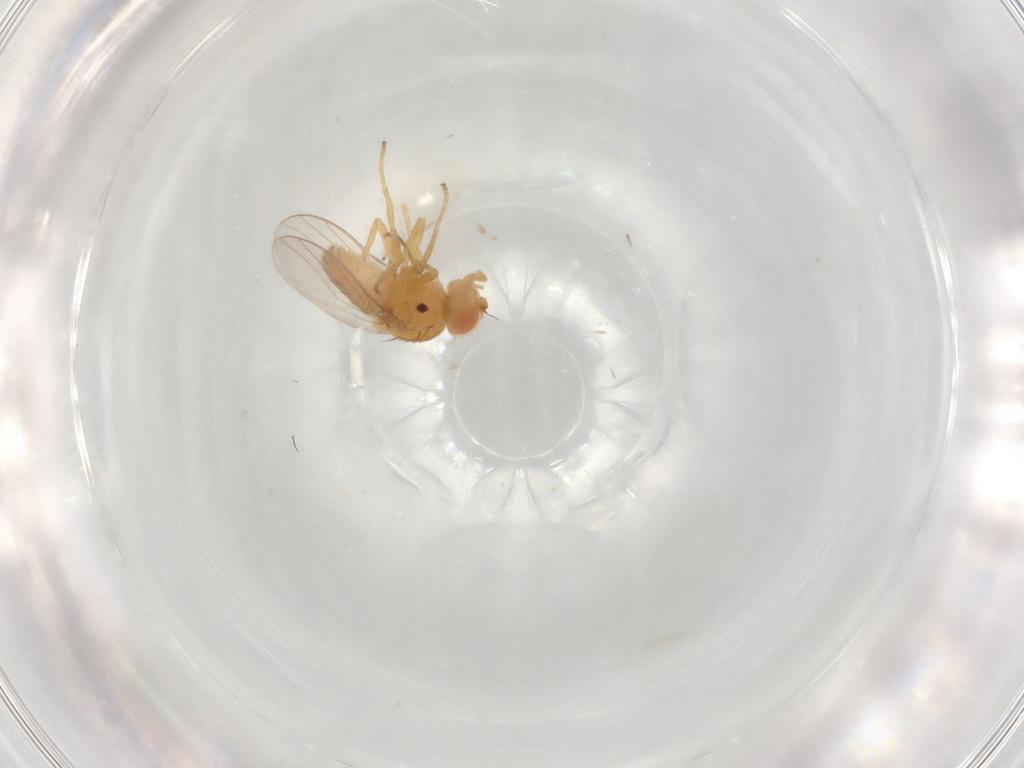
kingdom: Animalia
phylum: Arthropoda
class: Insecta
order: Diptera
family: Chloropidae
